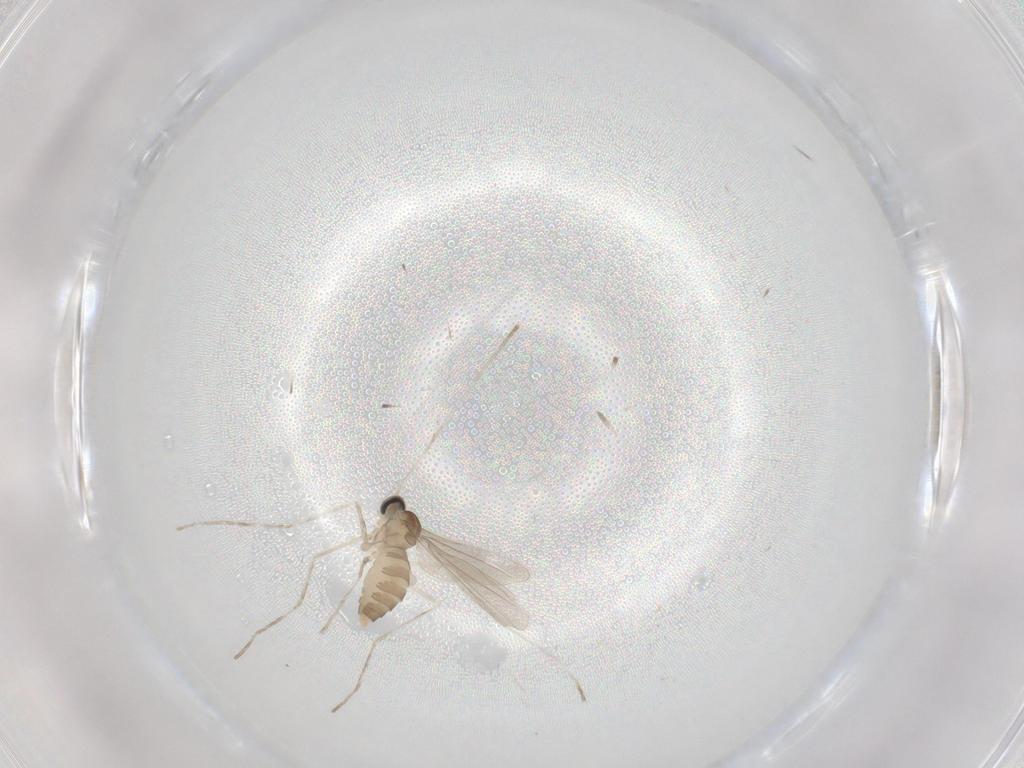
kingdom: Animalia
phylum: Arthropoda
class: Insecta
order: Diptera
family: Cecidomyiidae
